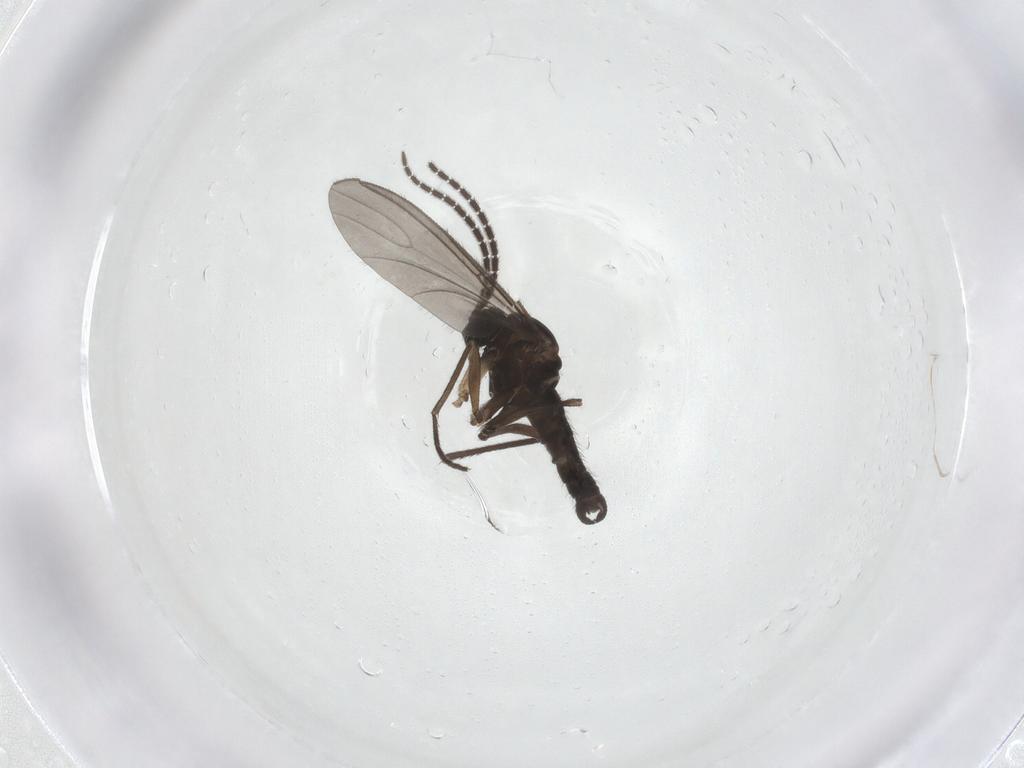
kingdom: Animalia
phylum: Arthropoda
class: Insecta
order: Diptera
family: Sciaridae
